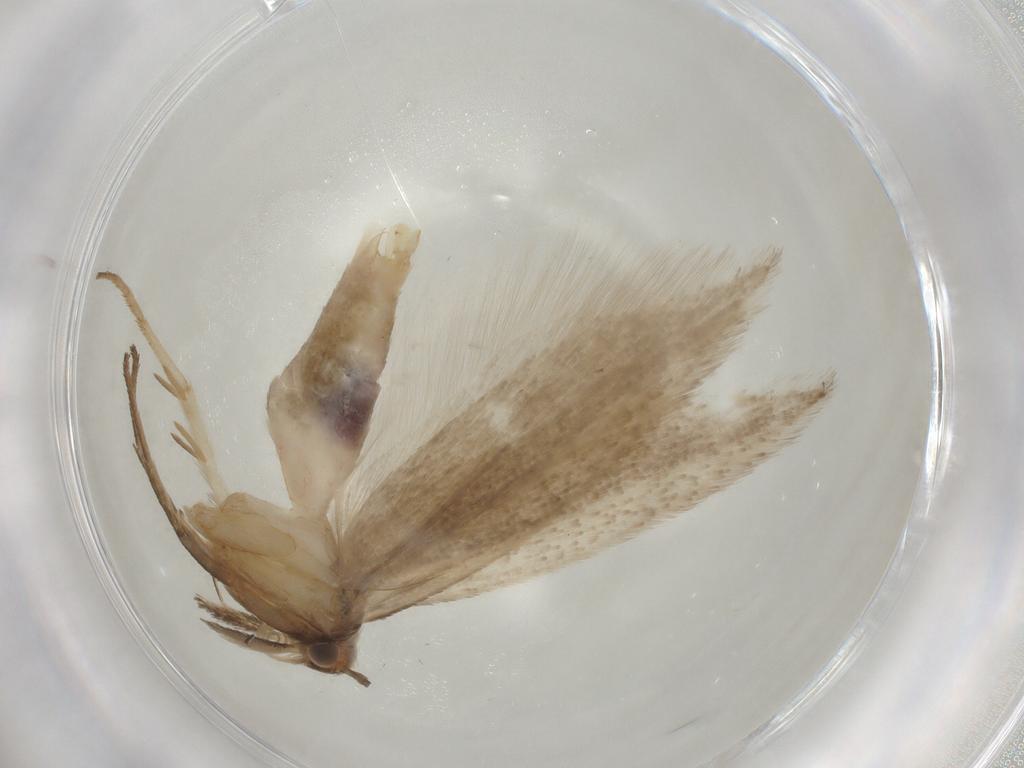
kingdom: Animalia
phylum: Arthropoda
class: Insecta
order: Lepidoptera
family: Gelechiidae
